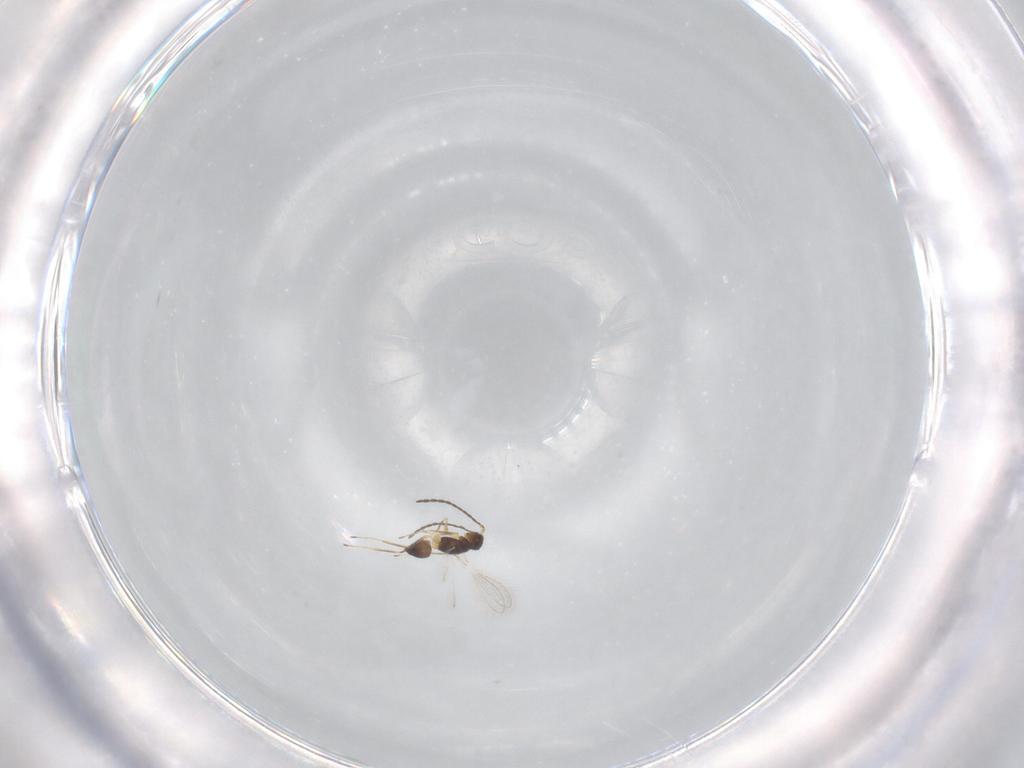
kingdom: Animalia
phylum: Arthropoda
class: Insecta
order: Hymenoptera
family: Mymaridae
